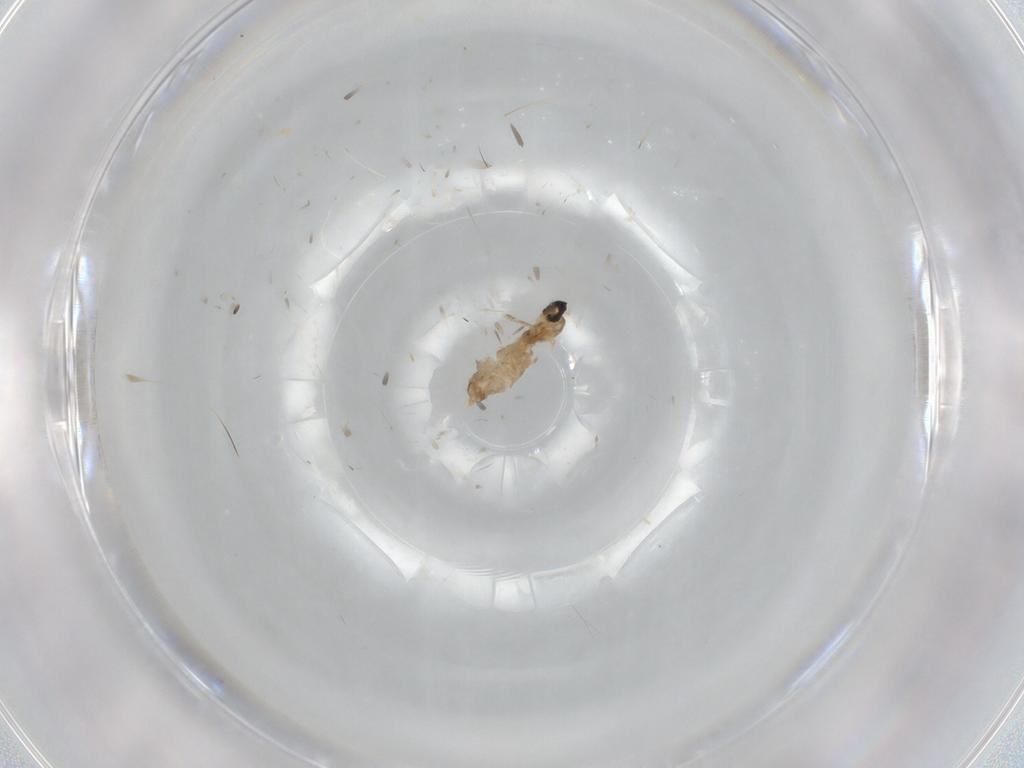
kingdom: Animalia
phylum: Arthropoda
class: Insecta
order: Diptera
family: Cecidomyiidae
